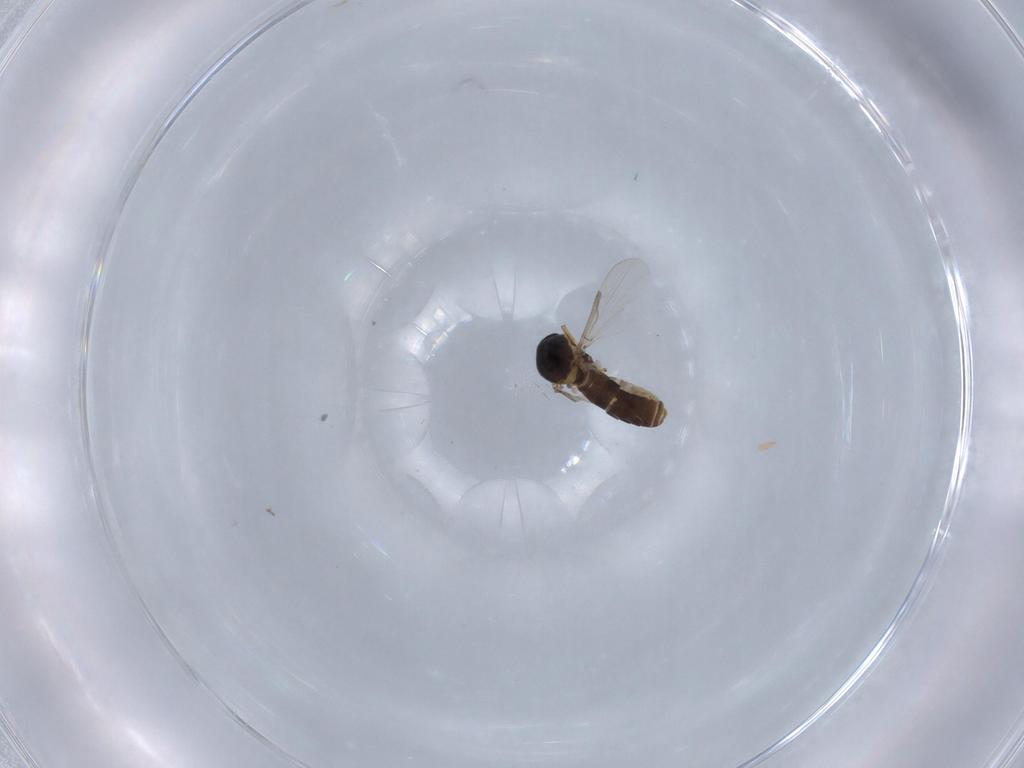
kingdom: Animalia
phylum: Arthropoda
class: Insecta
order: Diptera
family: Ceratopogonidae
